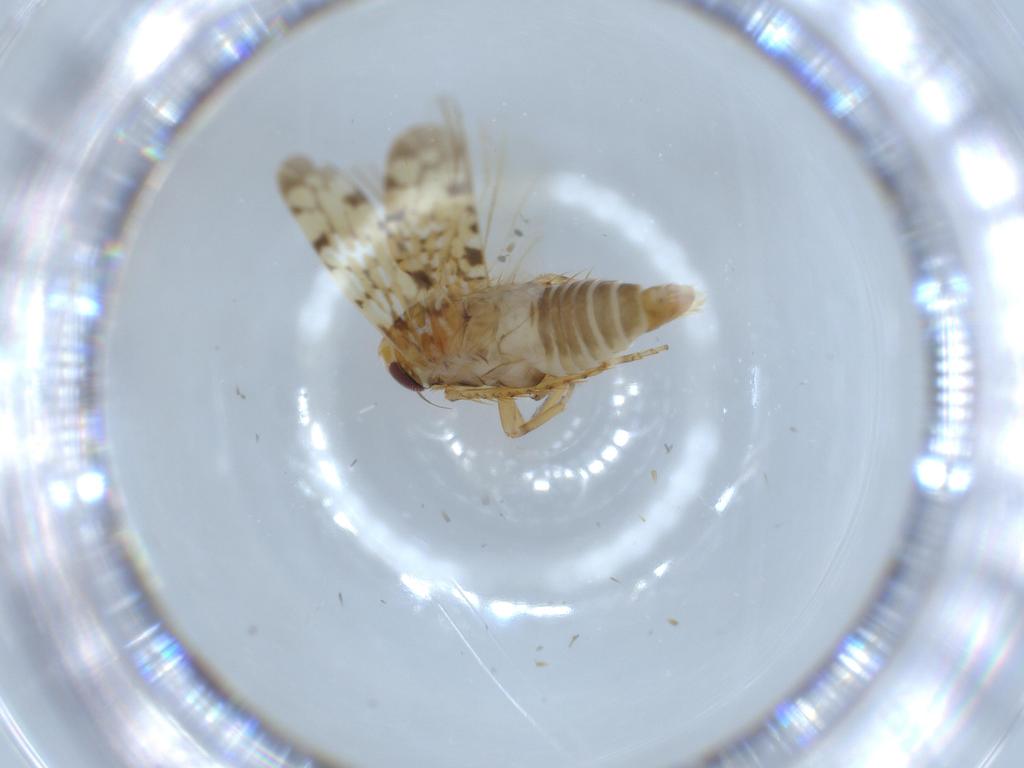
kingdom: Animalia
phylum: Arthropoda
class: Insecta
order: Hemiptera
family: Cicadellidae
